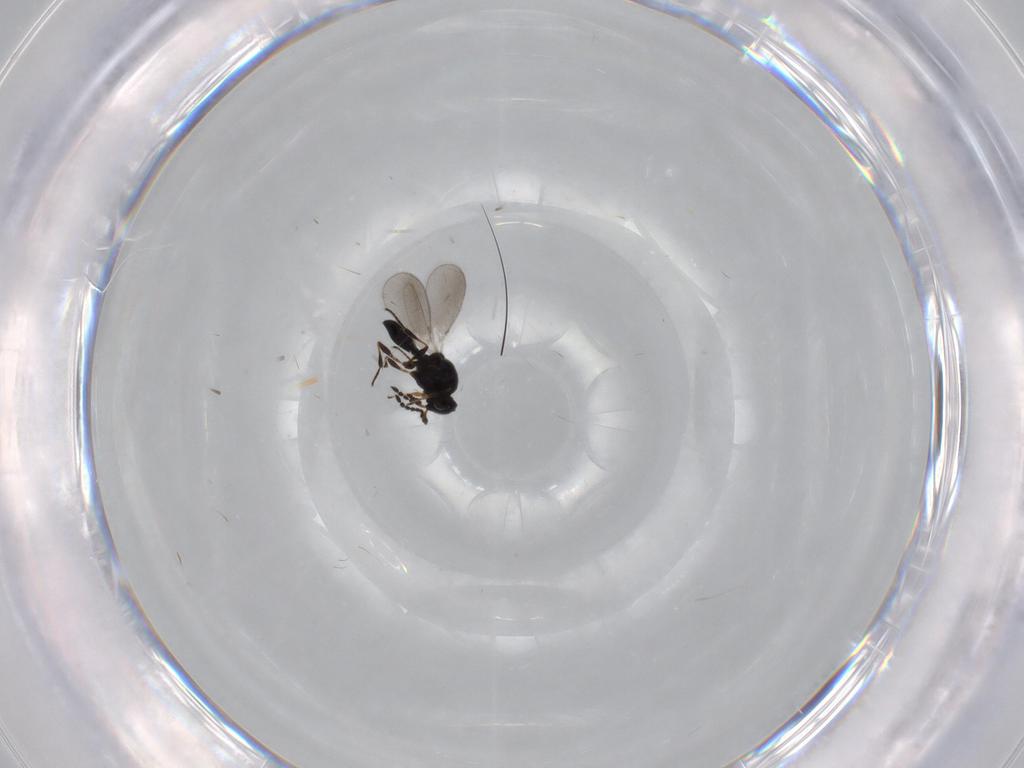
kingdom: Animalia
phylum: Arthropoda
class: Insecta
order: Hymenoptera
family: Platygastridae
